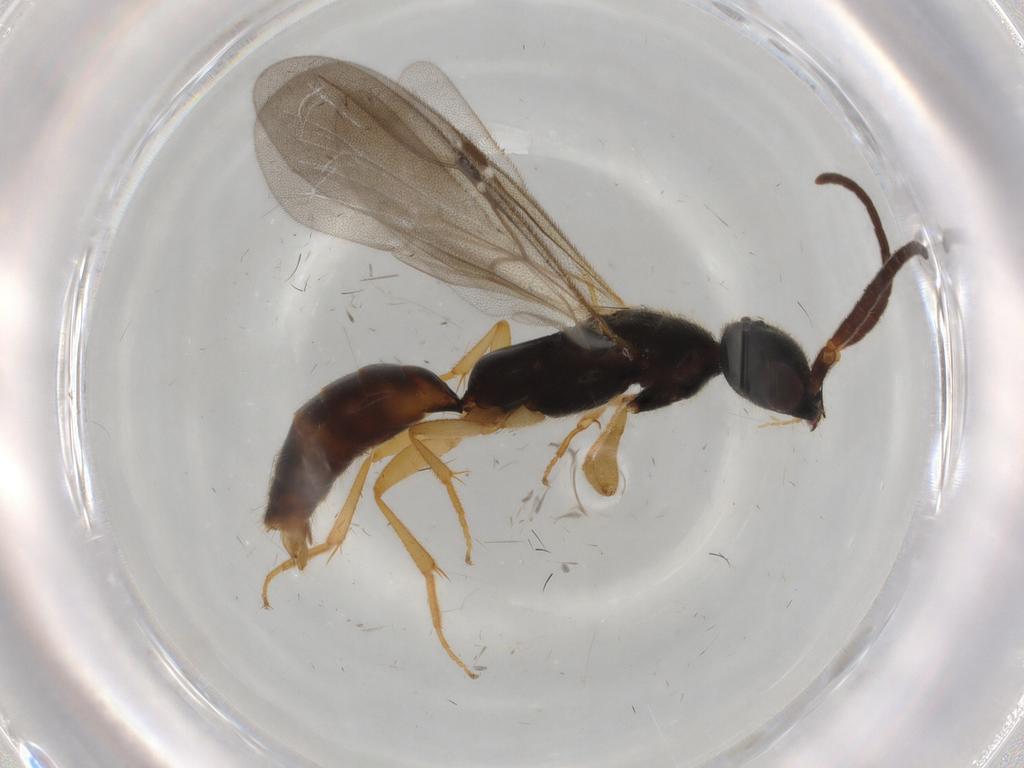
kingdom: Animalia
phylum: Arthropoda
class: Insecta
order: Hymenoptera
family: Bethylidae
